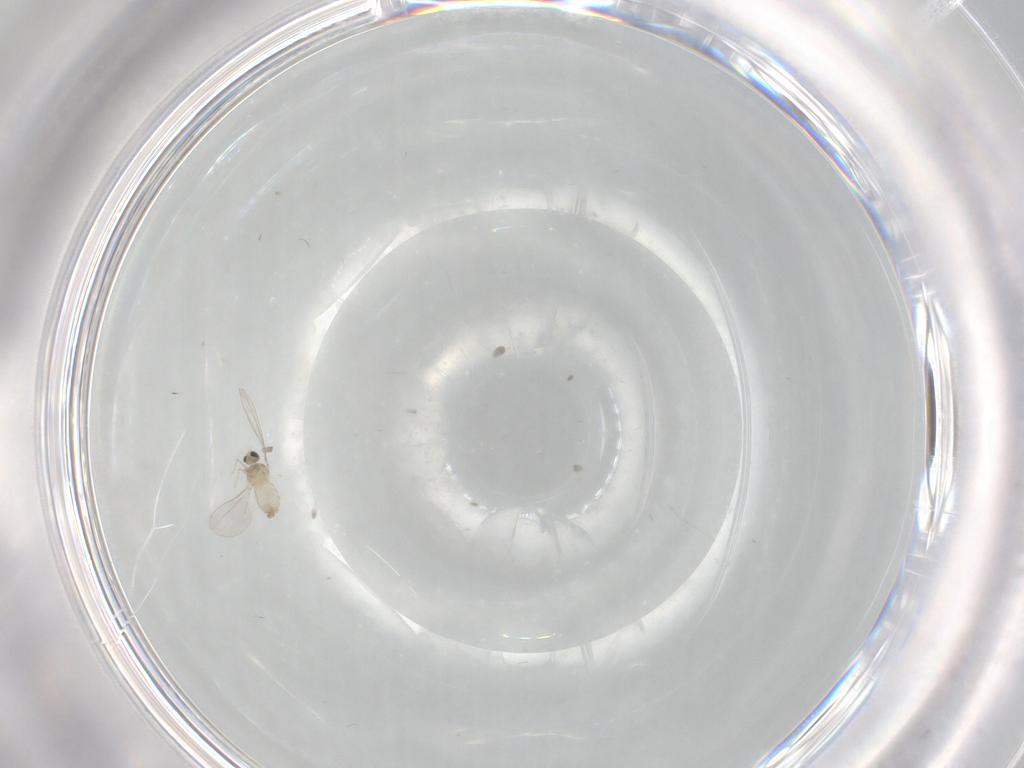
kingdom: Animalia
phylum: Arthropoda
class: Insecta
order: Diptera
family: Cecidomyiidae
